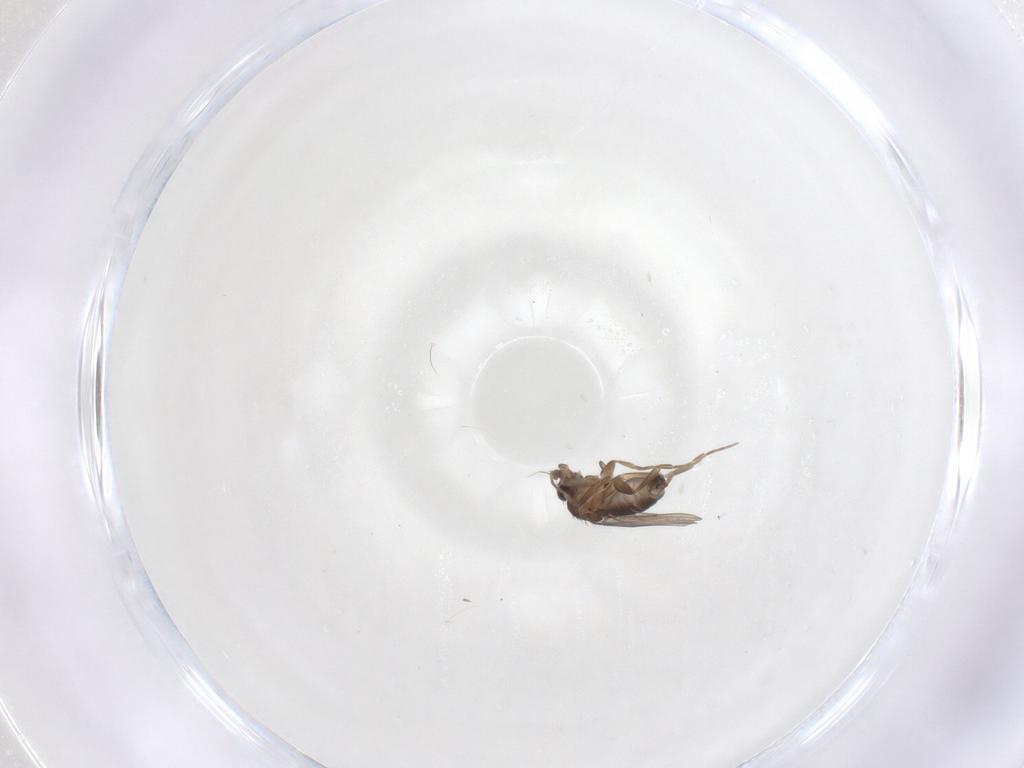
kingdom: Animalia
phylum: Arthropoda
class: Insecta
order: Diptera
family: Phoridae
